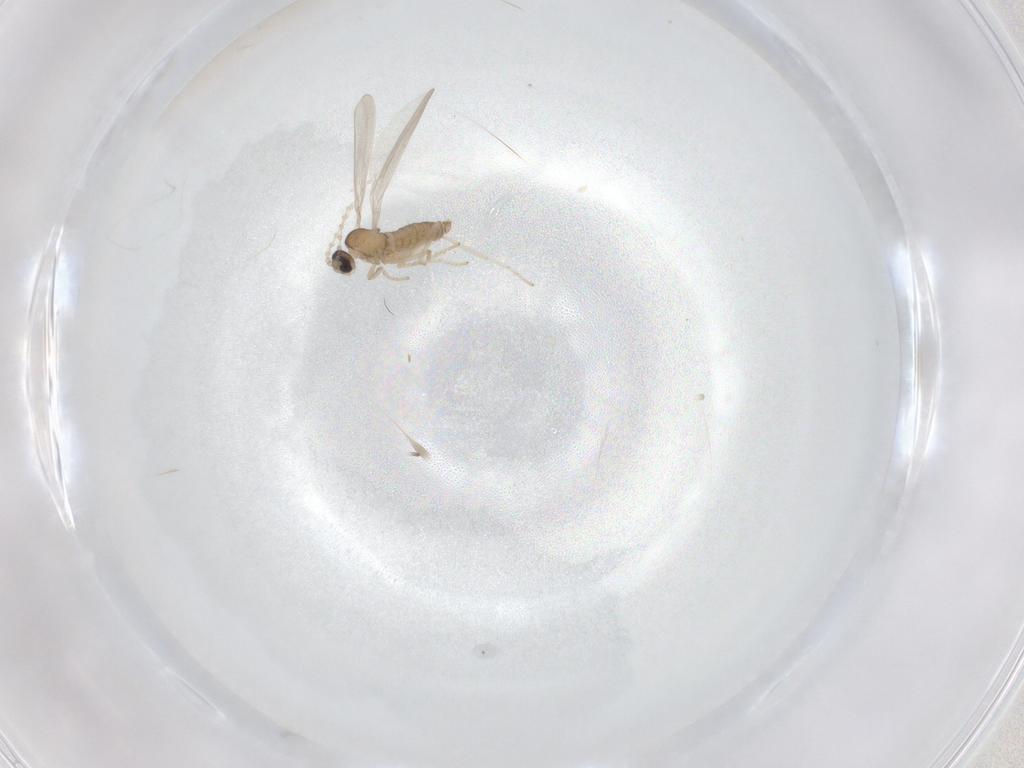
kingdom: Animalia
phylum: Arthropoda
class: Insecta
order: Diptera
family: Cecidomyiidae
